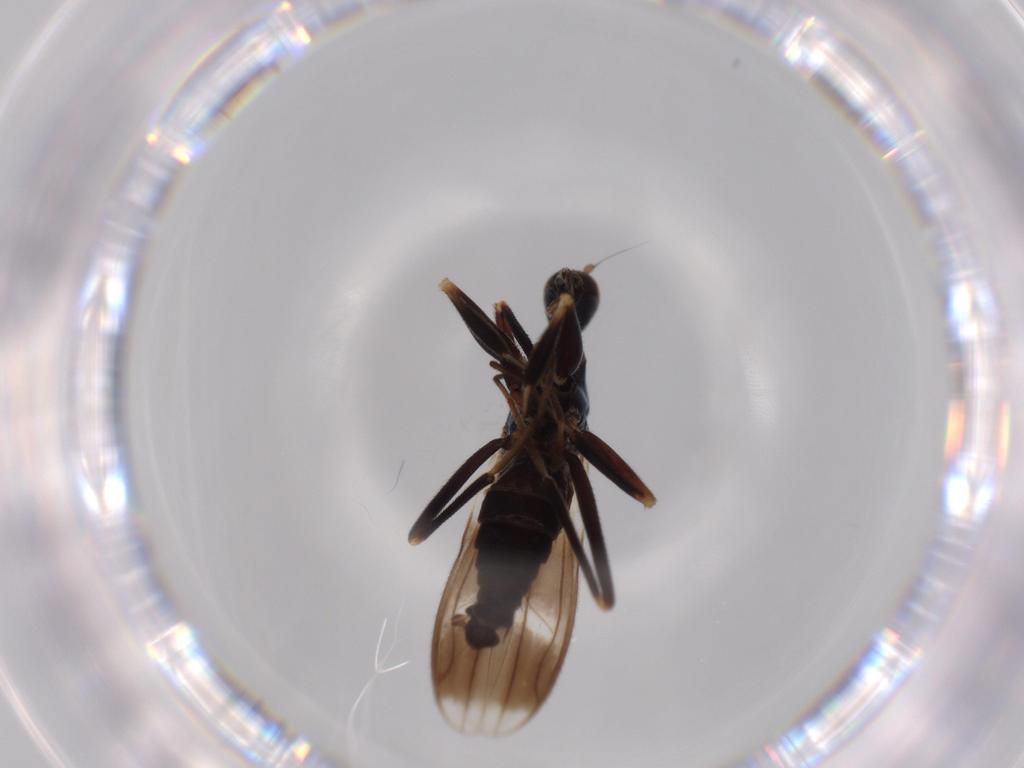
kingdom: Animalia
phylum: Arthropoda
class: Insecta
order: Diptera
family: Hybotidae
